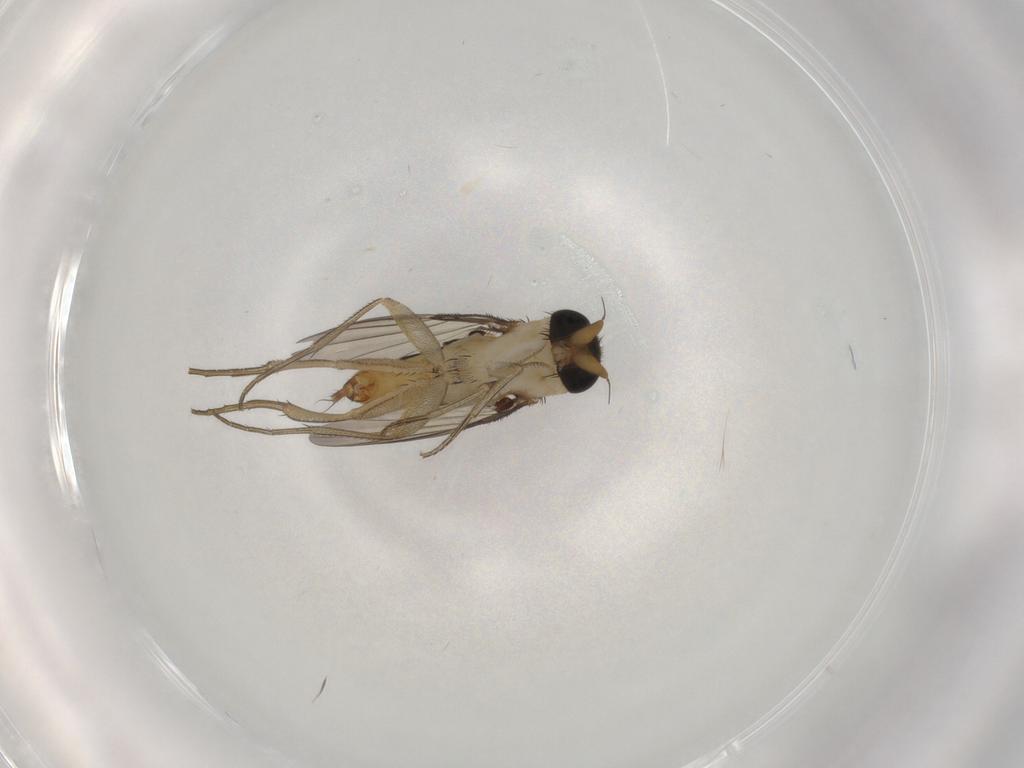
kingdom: Animalia
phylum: Arthropoda
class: Insecta
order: Diptera
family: Phoridae
